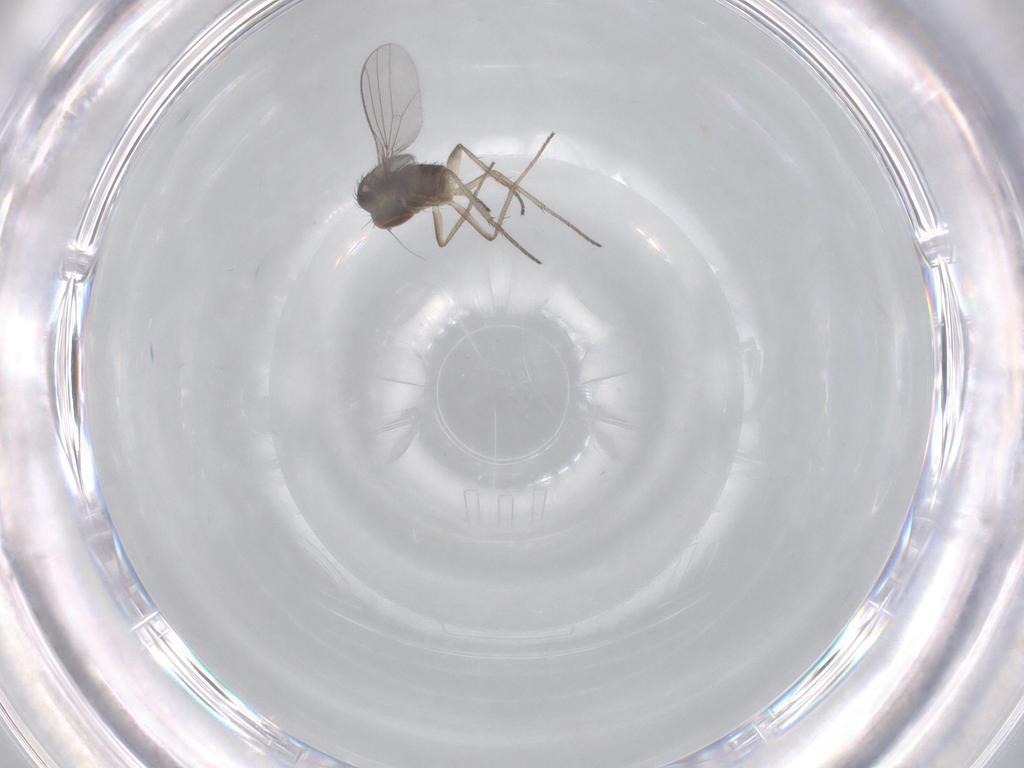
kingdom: Animalia
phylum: Arthropoda
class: Insecta
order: Diptera
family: Dolichopodidae
